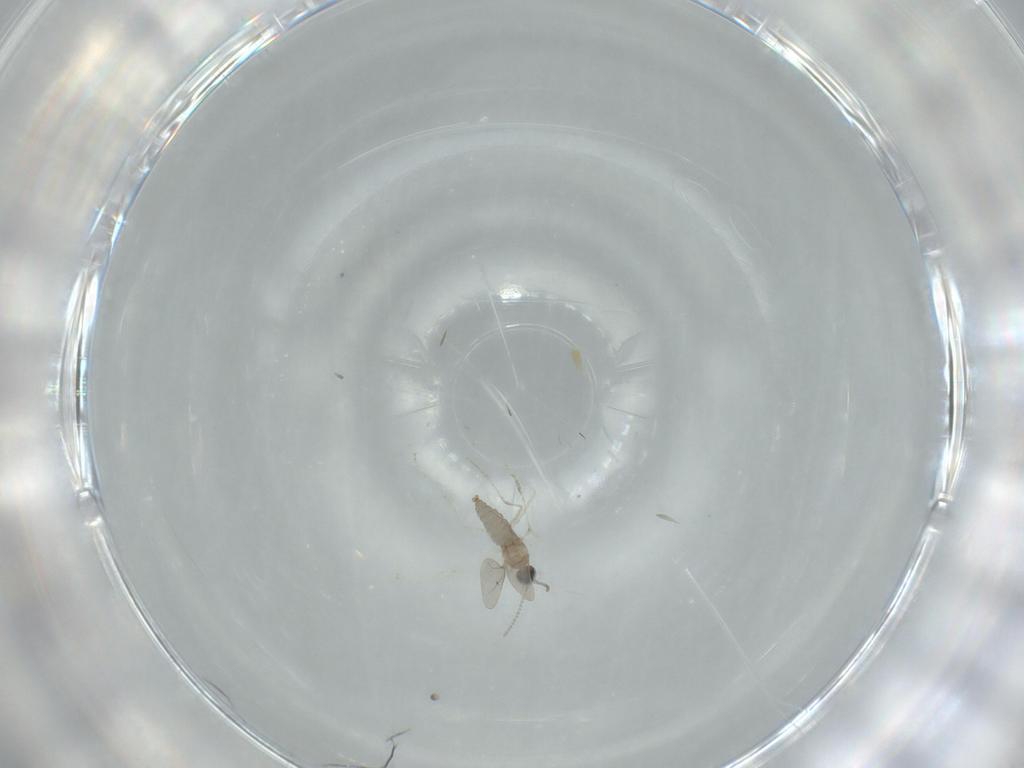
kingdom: Animalia
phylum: Arthropoda
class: Insecta
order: Diptera
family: Cecidomyiidae
